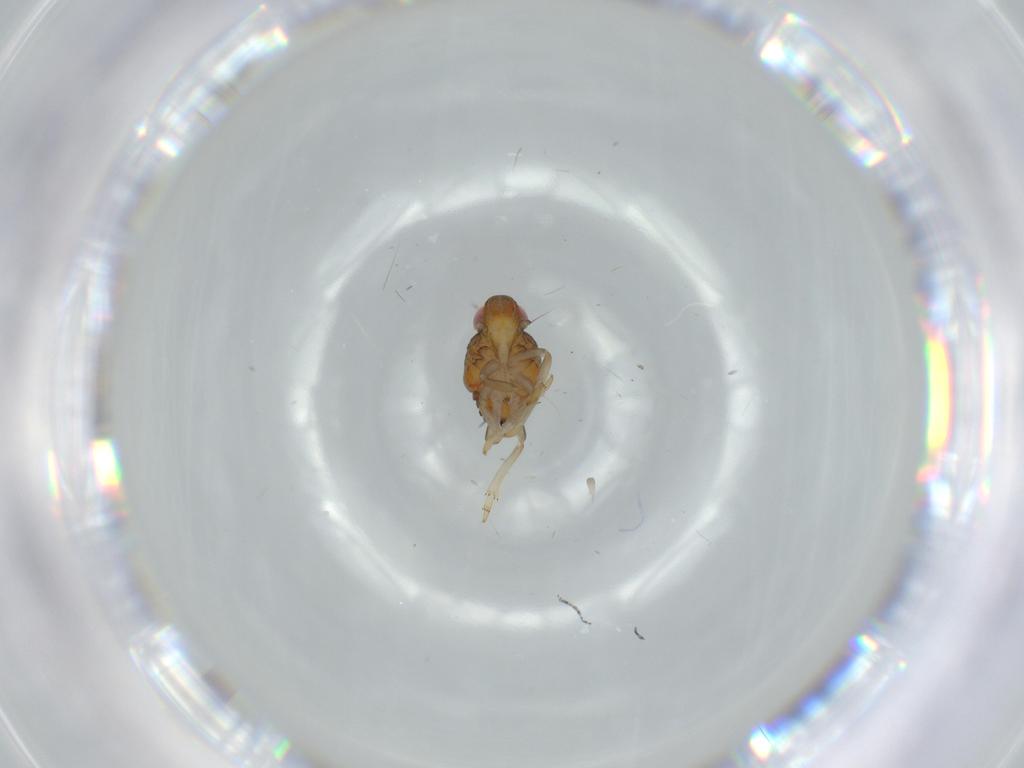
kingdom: Animalia
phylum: Arthropoda
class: Insecta
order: Hemiptera
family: Issidae
